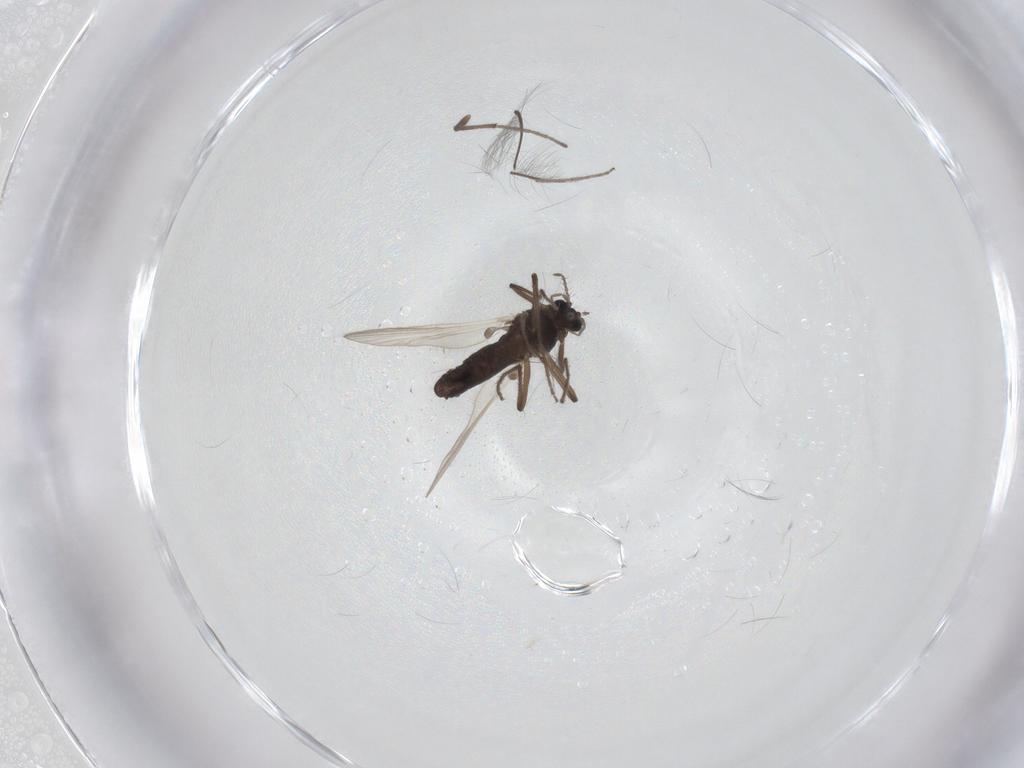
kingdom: Animalia
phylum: Arthropoda
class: Insecta
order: Diptera
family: Chironomidae
